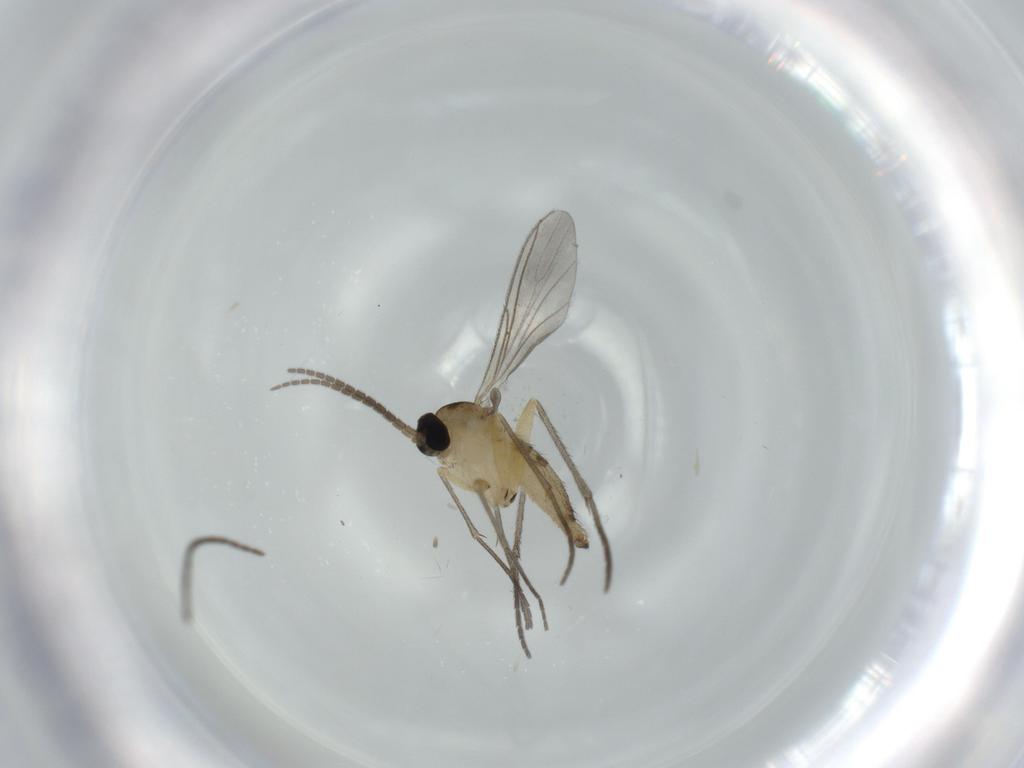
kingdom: Animalia
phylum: Arthropoda
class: Insecta
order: Diptera
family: Sciaridae
